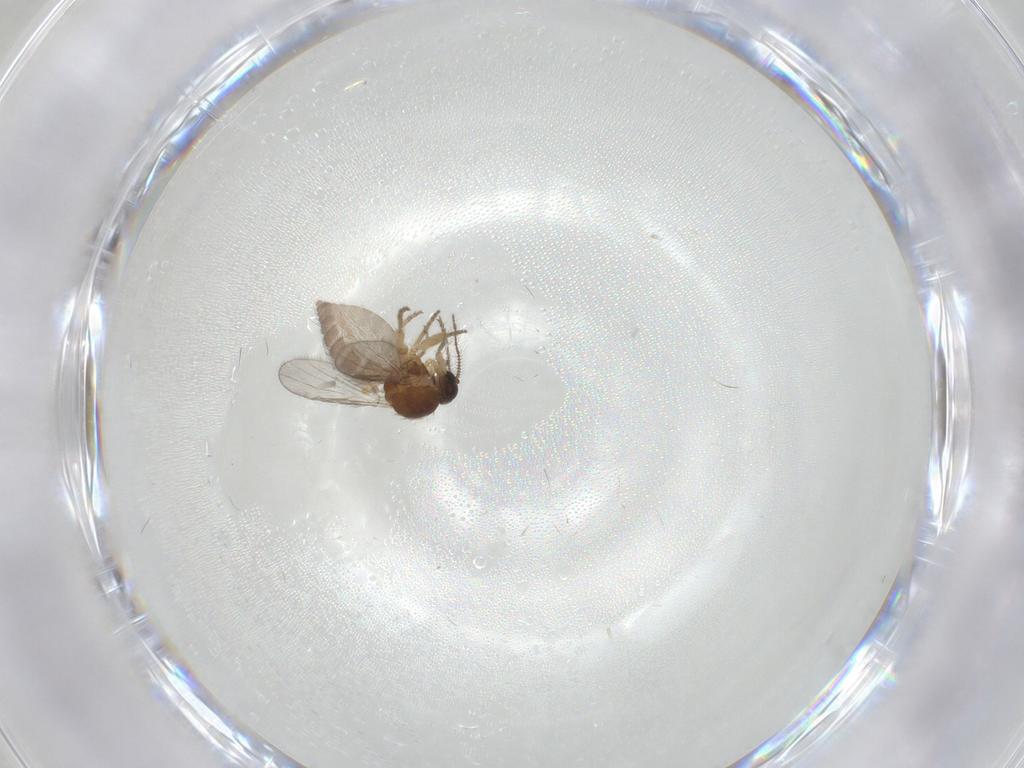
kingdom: Animalia
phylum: Arthropoda
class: Insecta
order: Diptera
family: Ceratopogonidae
